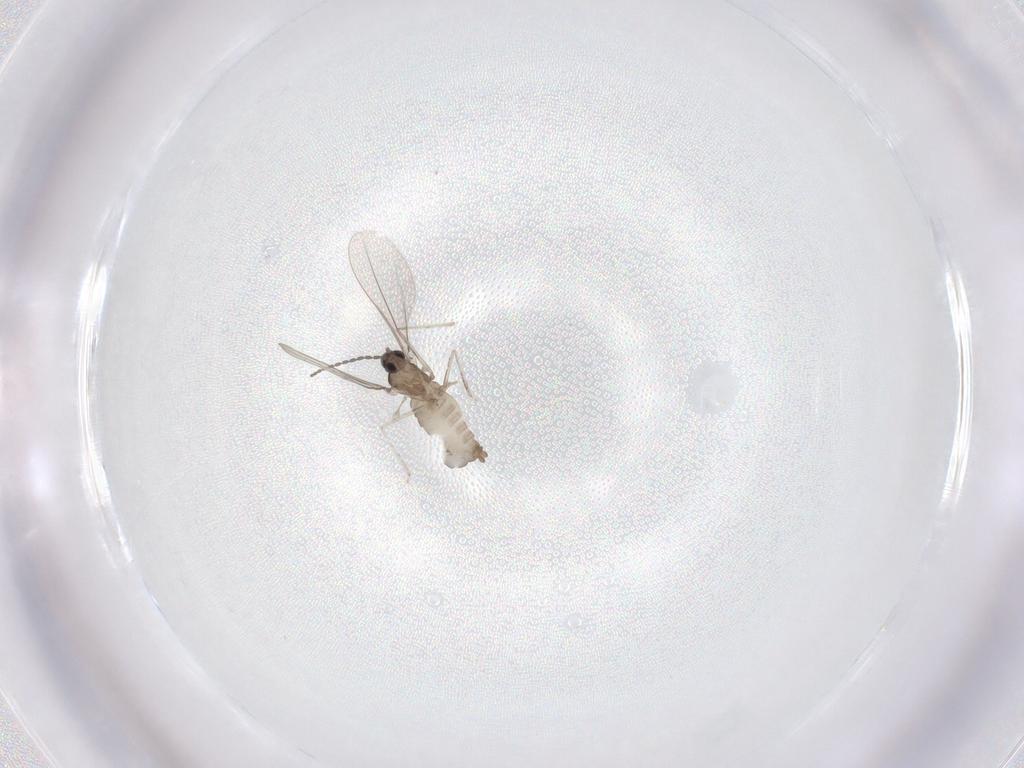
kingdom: Animalia
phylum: Arthropoda
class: Insecta
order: Diptera
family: Cecidomyiidae
